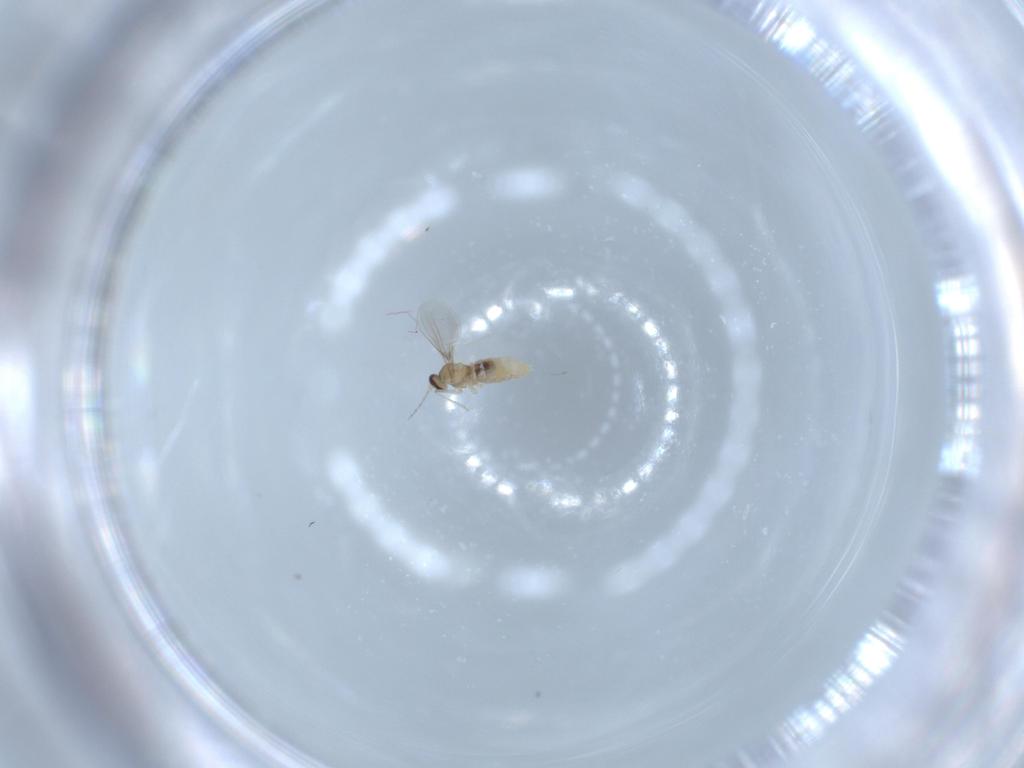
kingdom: Animalia
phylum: Arthropoda
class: Insecta
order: Diptera
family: Cecidomyiidae
